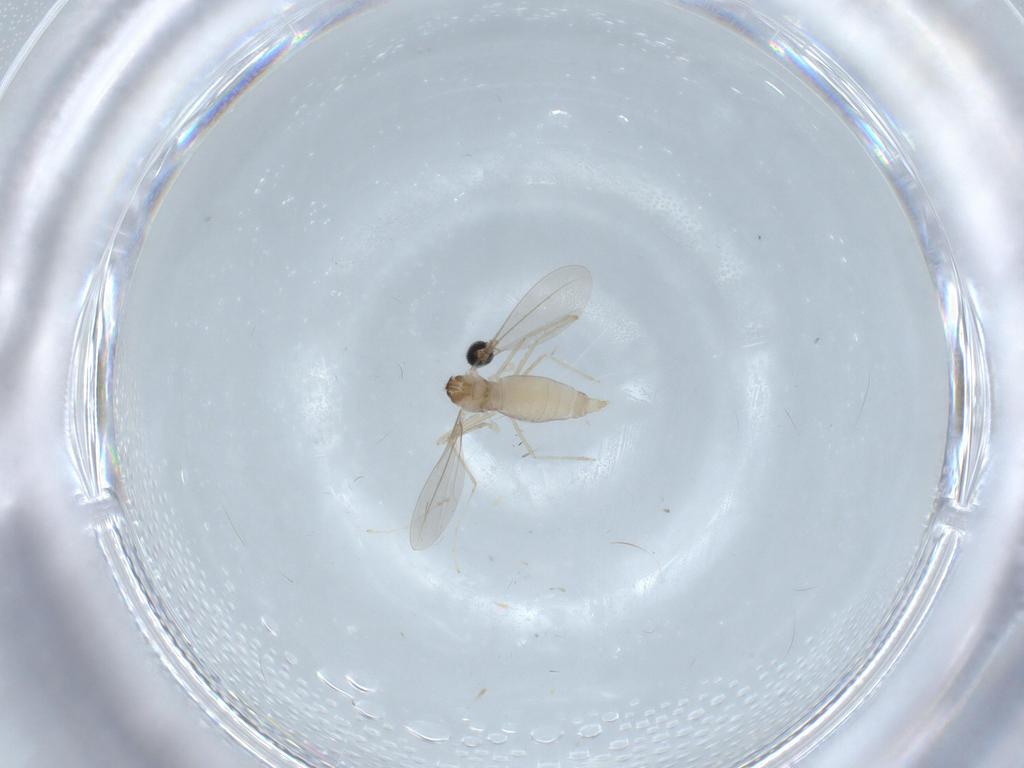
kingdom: Animalia
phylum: Arthropoda
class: Insecta
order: Diptera
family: Cecidomyiidae
